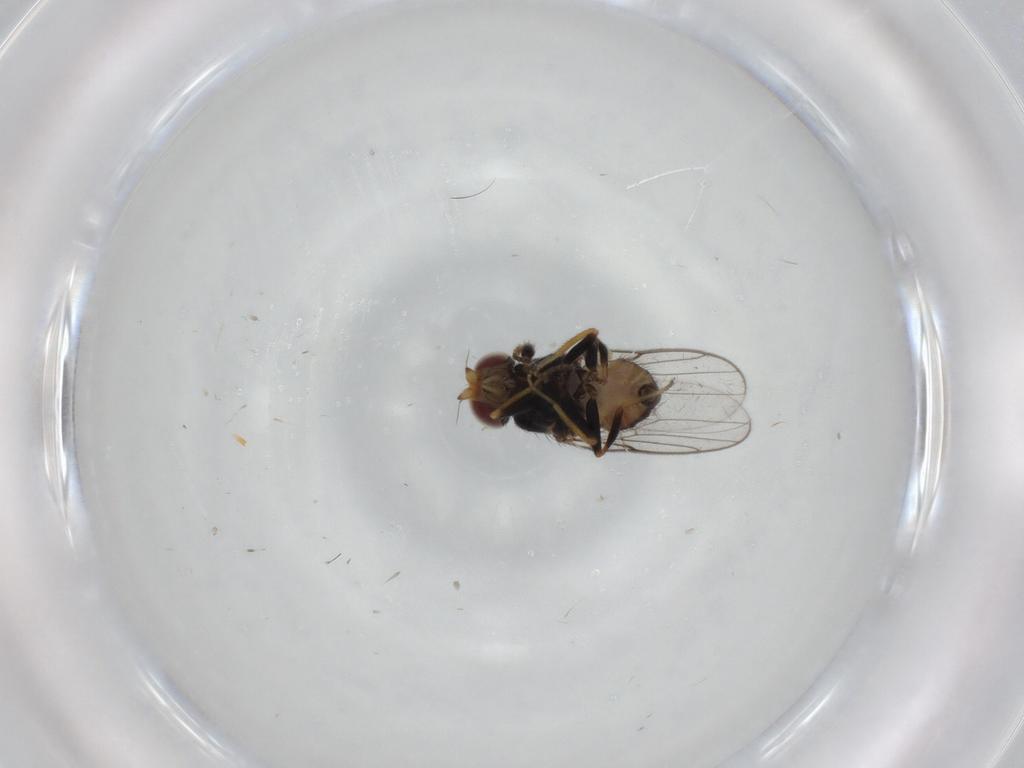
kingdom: Animalia
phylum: Arthropoda
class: Insecta
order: Diptera
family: Chloropidae
